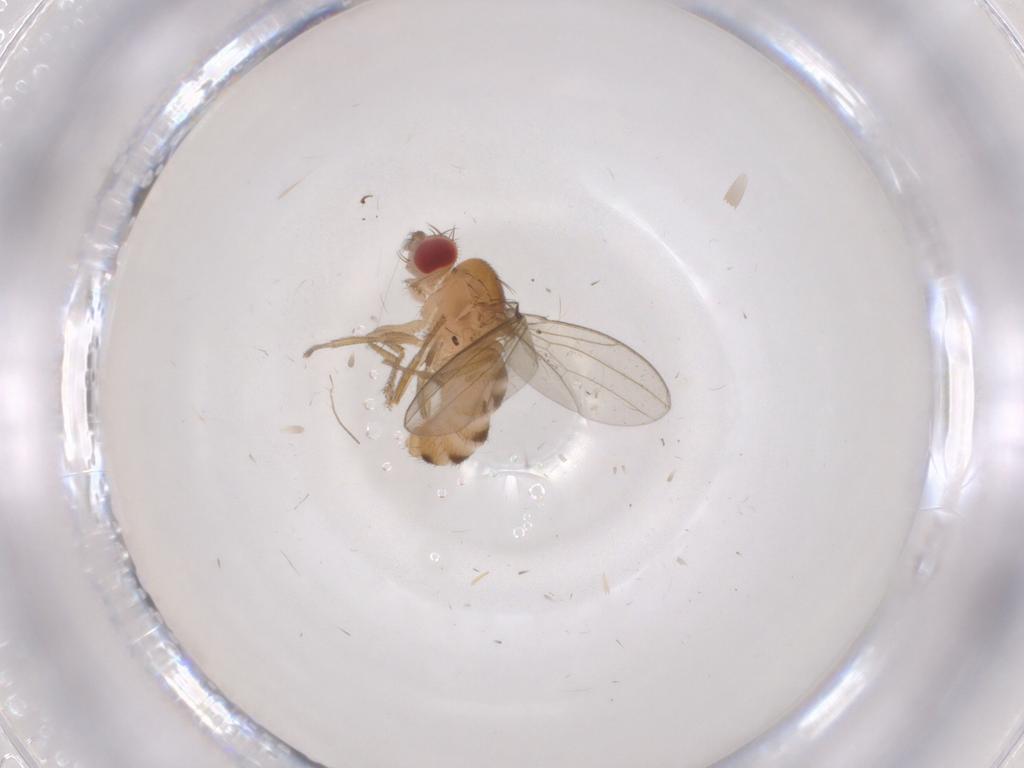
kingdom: Animalia
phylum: Arthropoda
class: Insecta
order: Diptera
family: Drosophilidae
